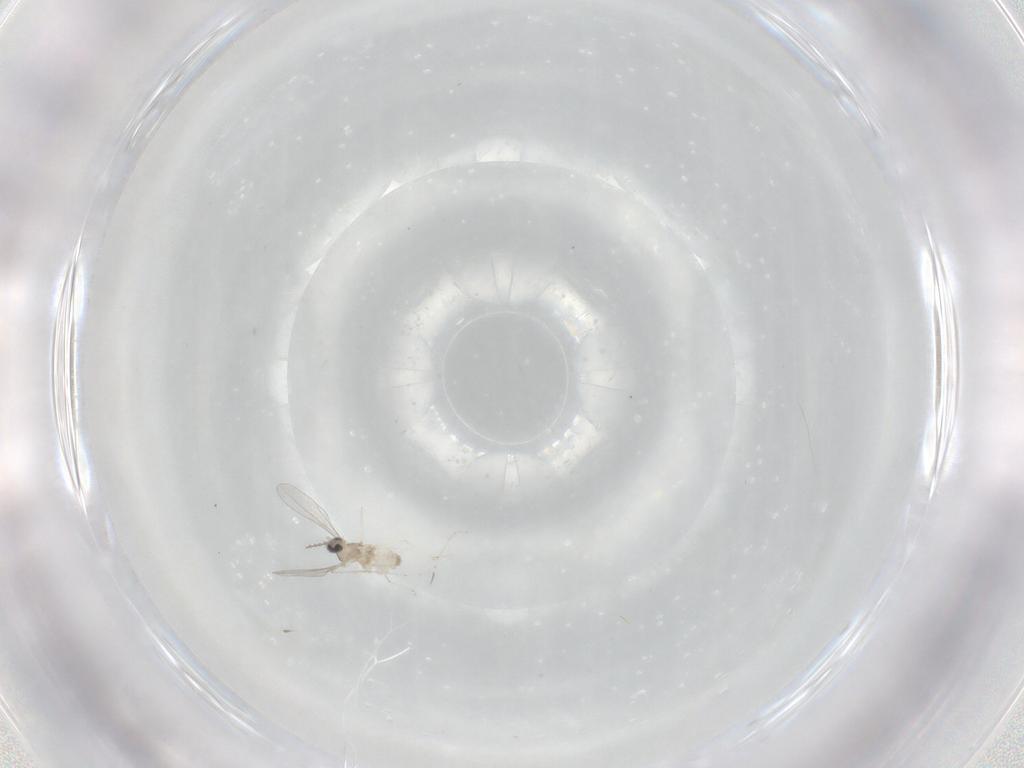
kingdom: Animalia
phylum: Arthropoda
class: Insecta
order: Diptera
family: Cecidomyiidae
